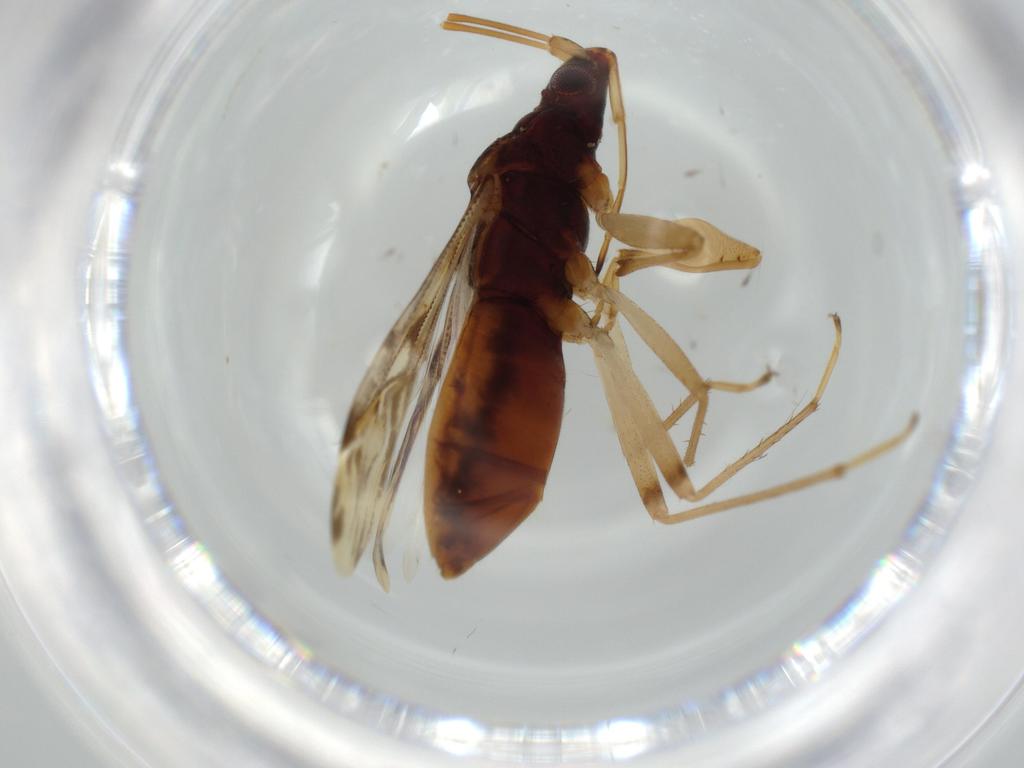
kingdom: Animalia
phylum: Arthropoda
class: Insecta
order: Hemiptera
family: Rhyparochromidae
